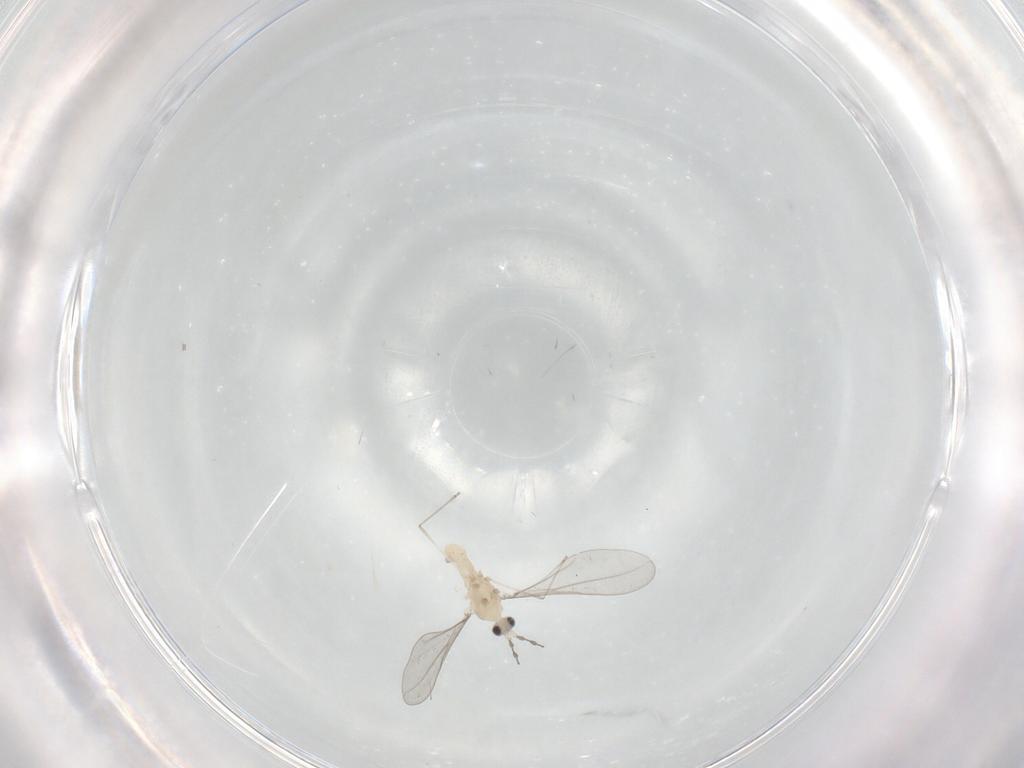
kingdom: Animalia
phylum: Arthropoda
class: Insecta
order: Diptera
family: Cecidomyiidae
